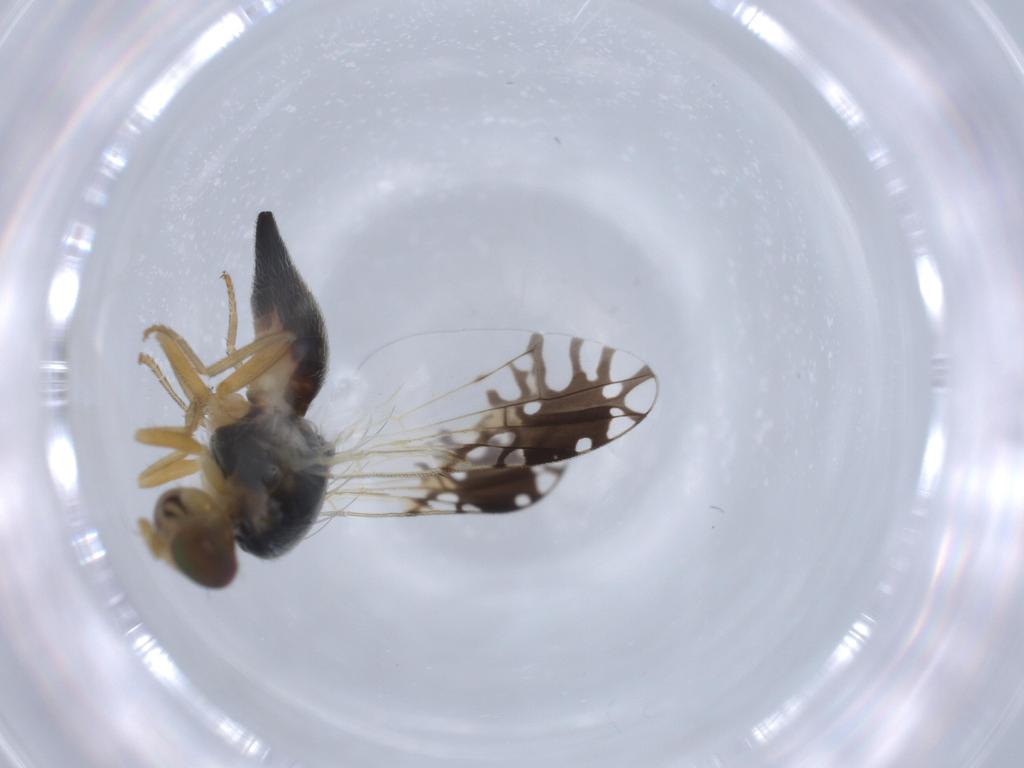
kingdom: Animalia
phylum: Arthropoda
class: Insecta
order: Diptera
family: Tephritidae
